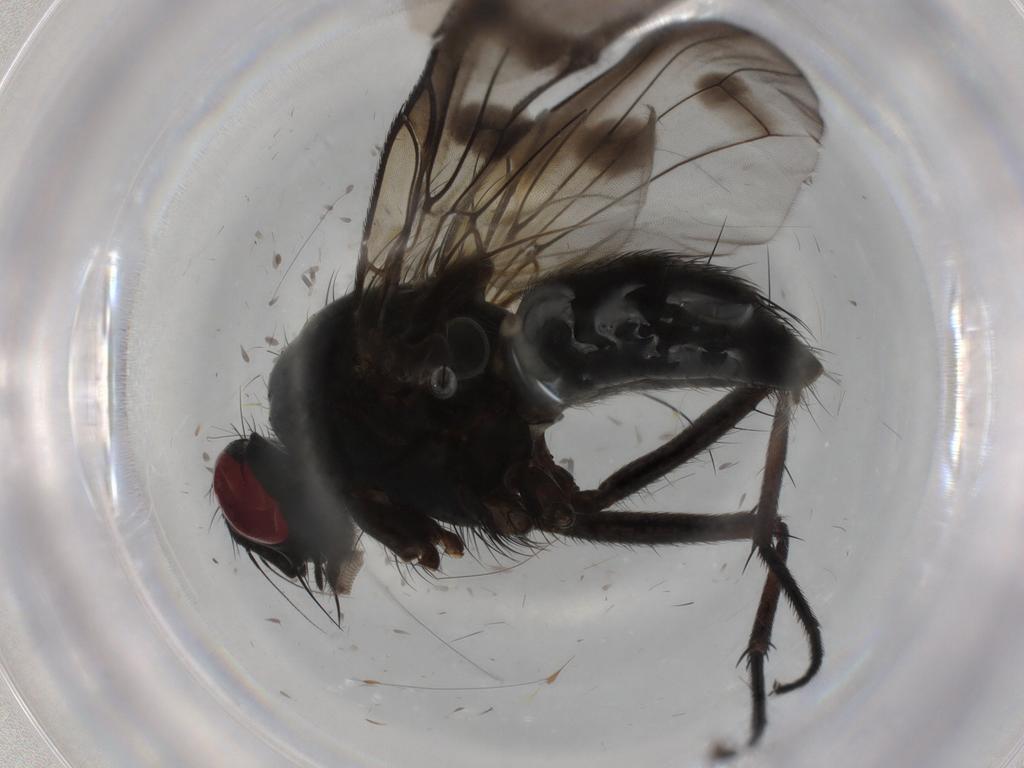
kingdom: Animalia
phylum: Arthropoda
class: Insecta
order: Diptera
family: Muscidae
